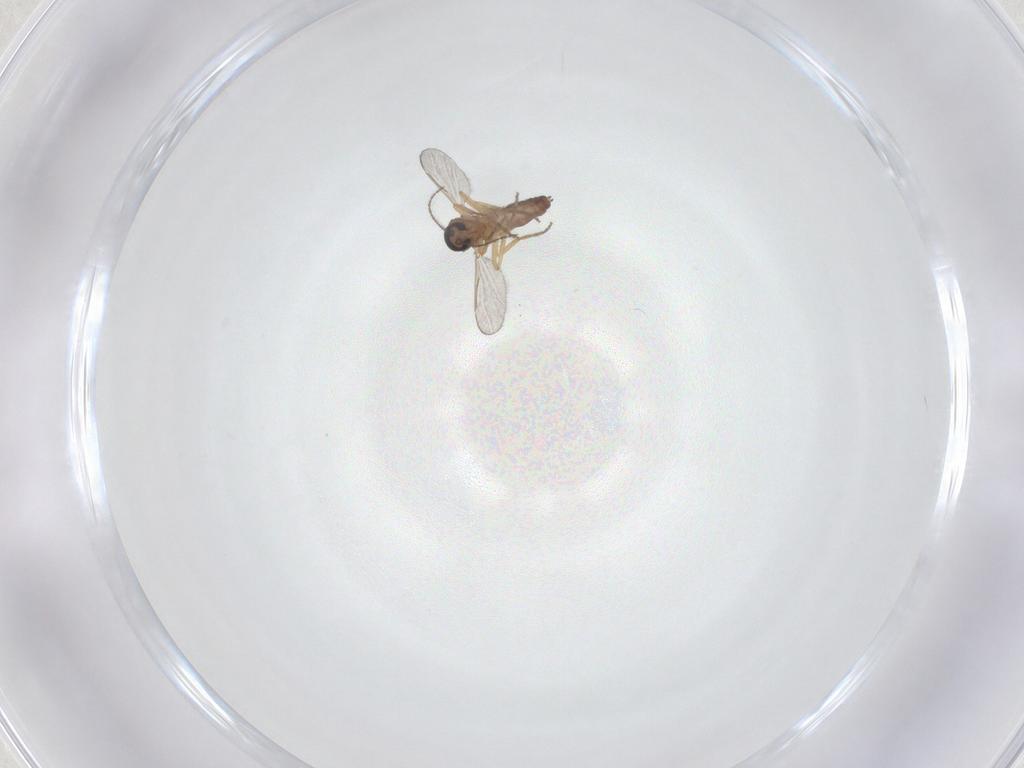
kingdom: Animalia
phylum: Arthropoda
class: Insecta
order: Diptera
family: Ceratopogonidae
